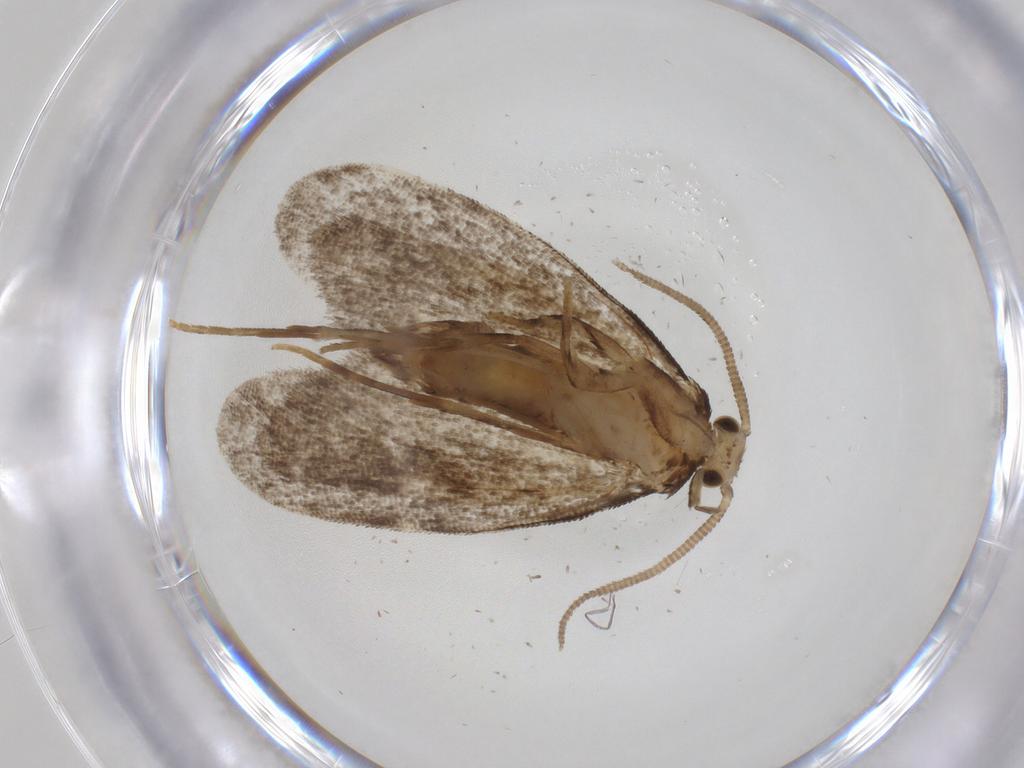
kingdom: Animalia
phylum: Arthropoda
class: Insecta
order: Lepidoptera
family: Dryadaulidae
